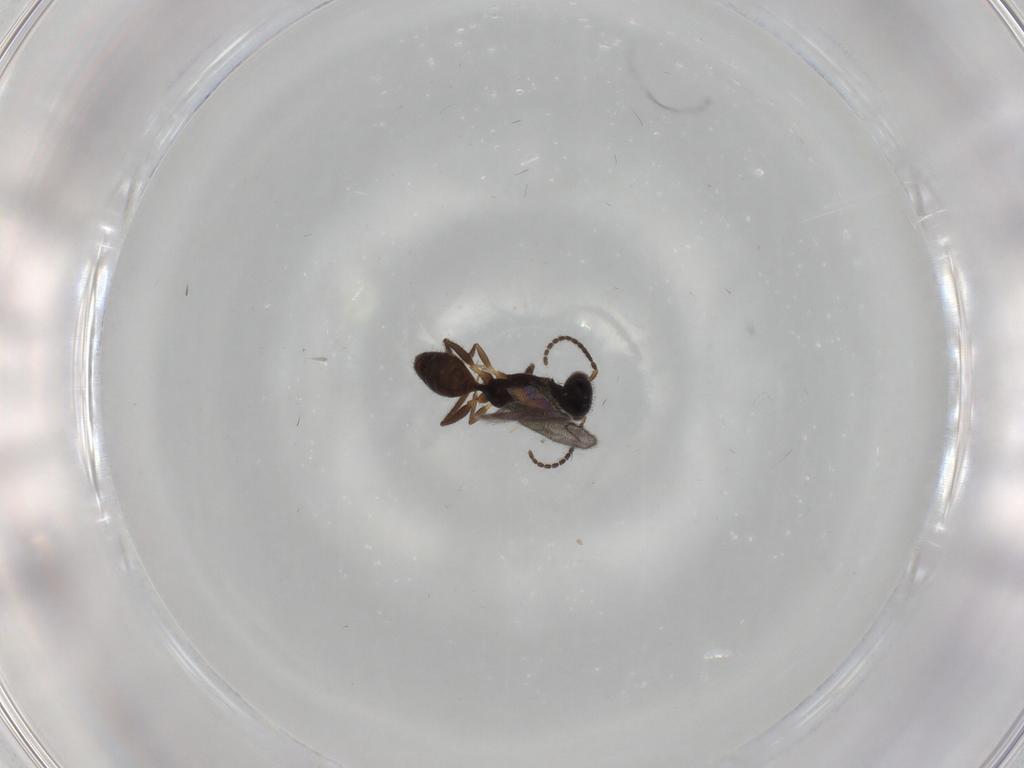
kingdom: Animalia
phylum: Arthropoda
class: Insecta
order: Hymenoptera
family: Bethylidae
